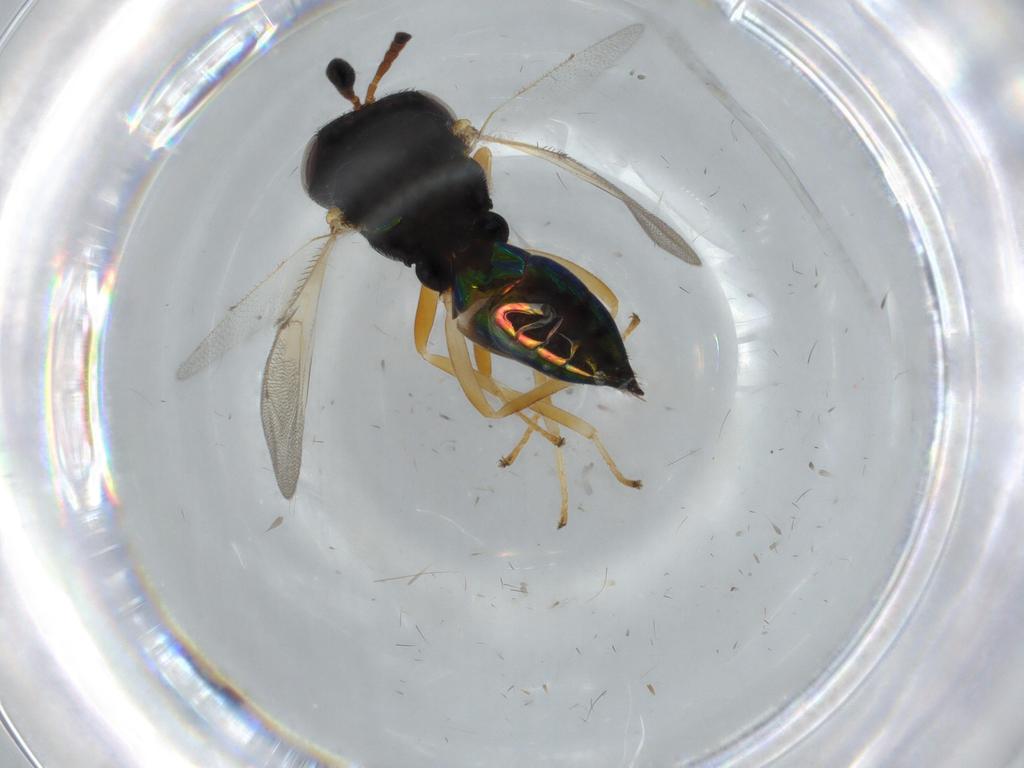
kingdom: Animalia
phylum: Arthropoda
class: Insecta
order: Hymenoptera
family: Pteromalidae
